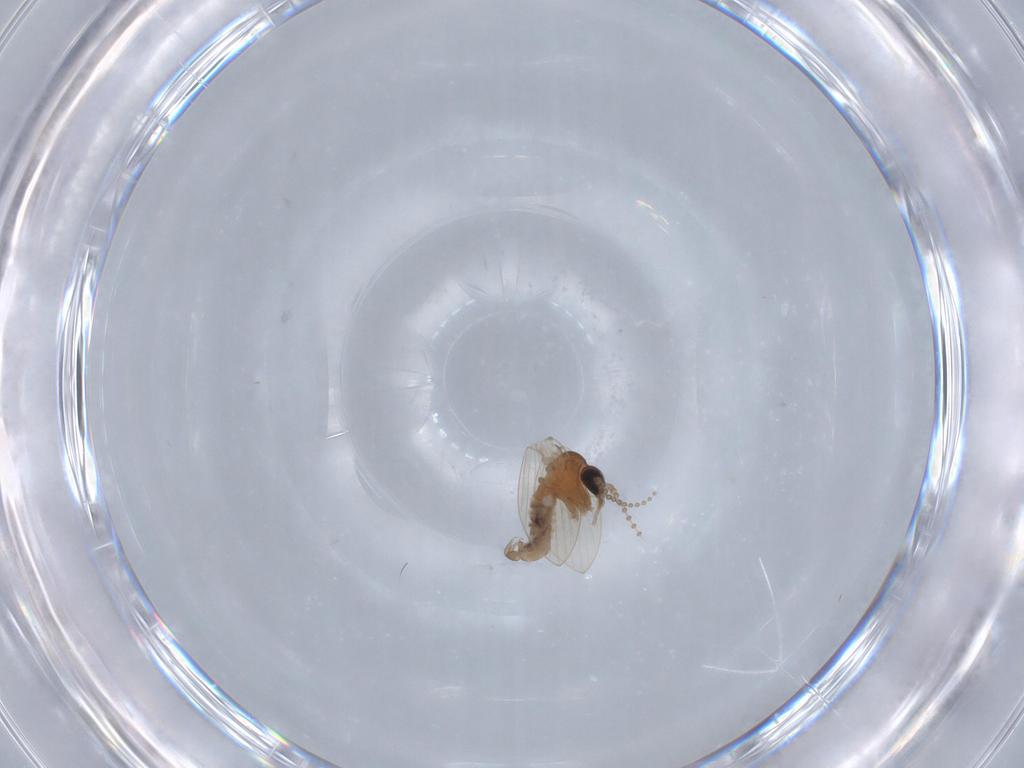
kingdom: Animalia
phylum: Arthropoda
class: Insecta
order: Diptera
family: Psychodidae
